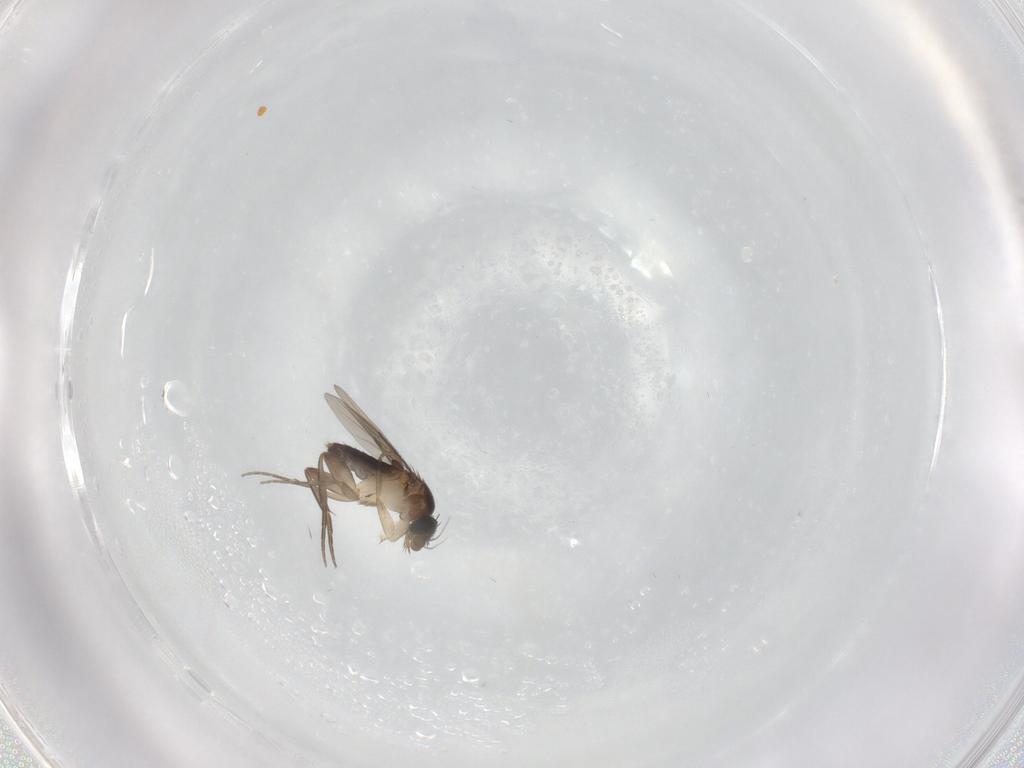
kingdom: Animalia
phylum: Arthropoda
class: Insecta
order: Diptera
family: Phoridae
